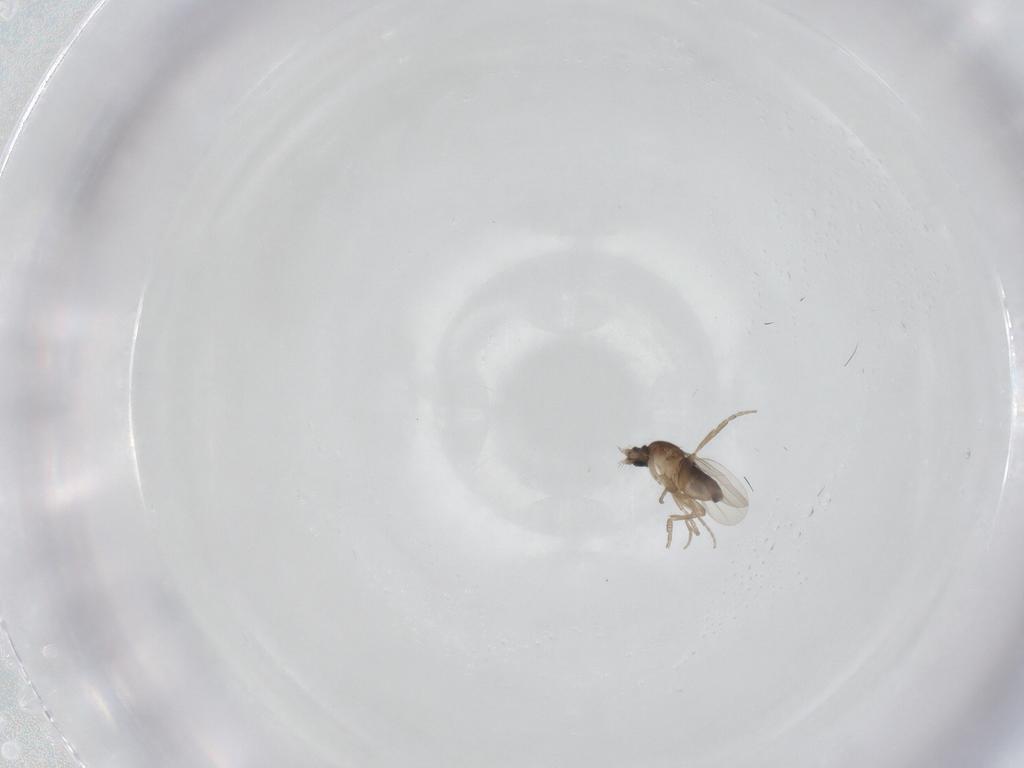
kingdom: Animalia
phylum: Arthropoda
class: Insecta
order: Diptera
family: Phoridae
